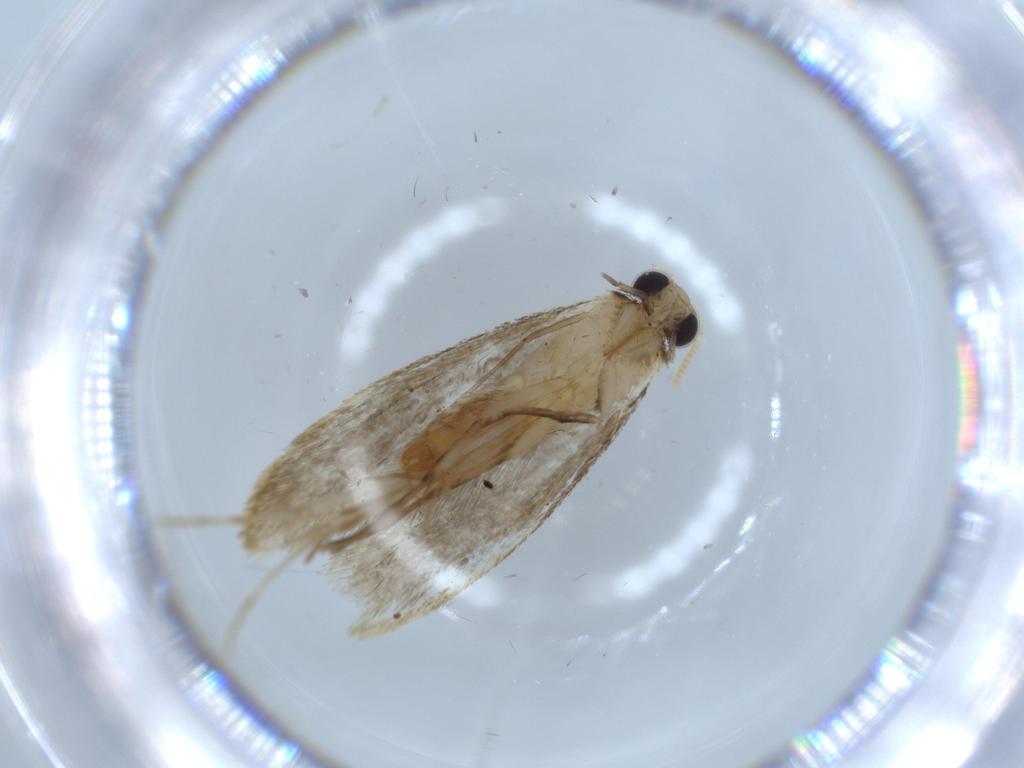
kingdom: Animalia
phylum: Arthropoda
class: Insecta
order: Lepidoptera
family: Tineidae
